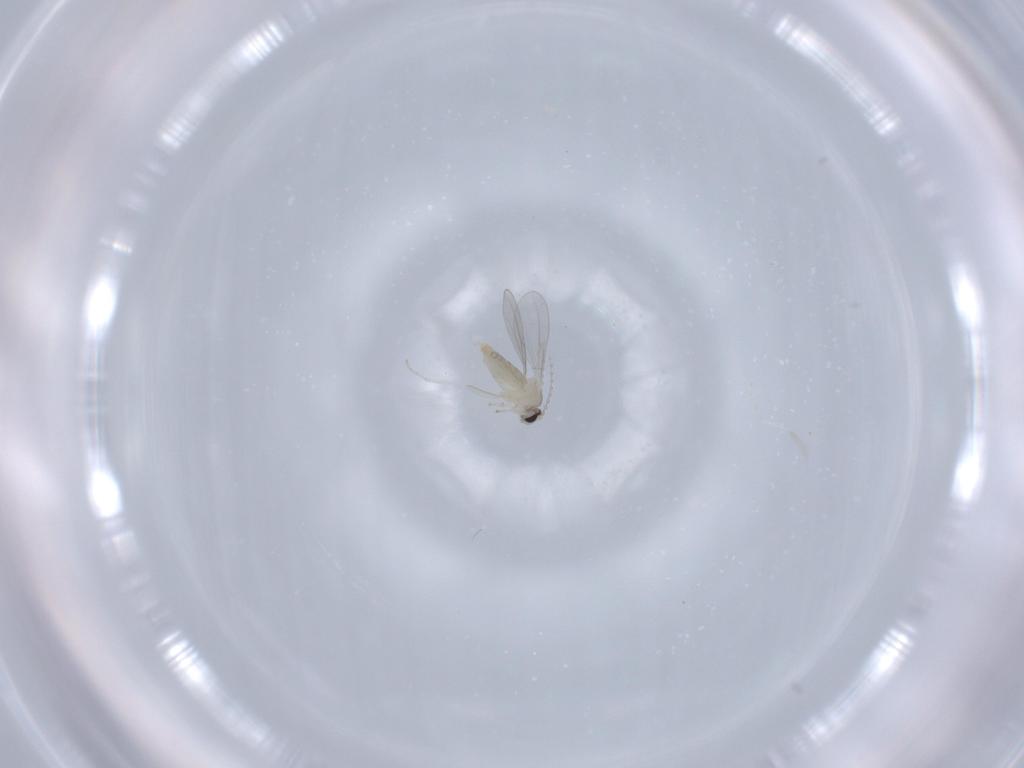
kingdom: Animalia
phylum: Arthropoda
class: Insecta
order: Diptera
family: Cecidomyiidae
